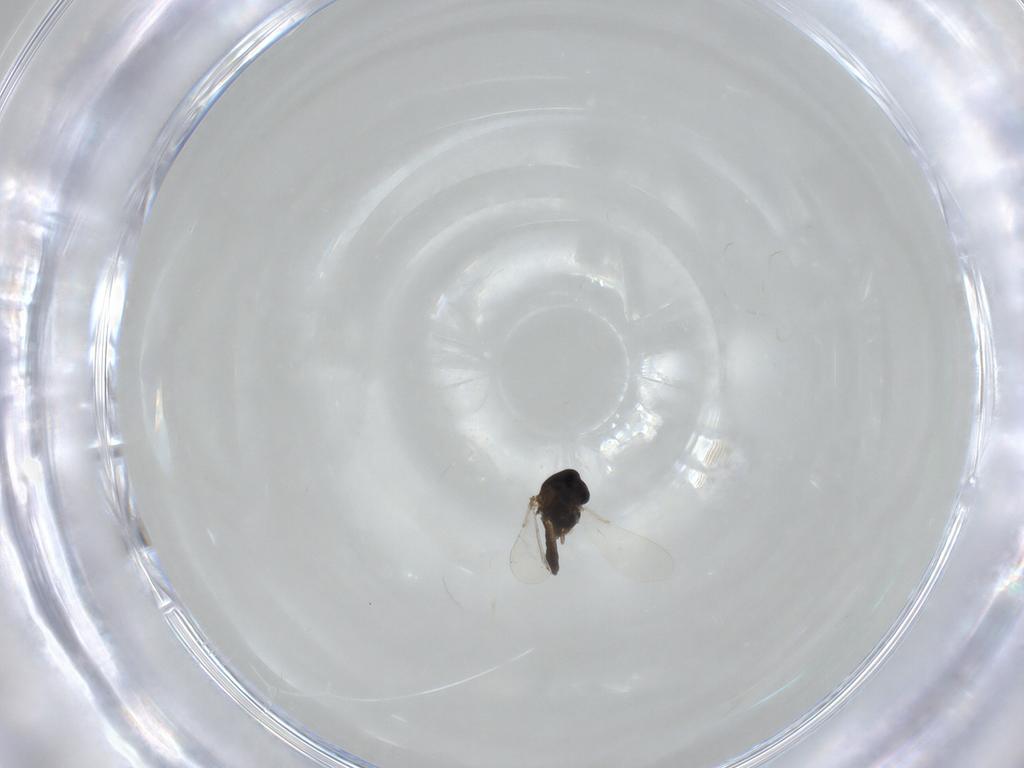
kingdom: Animalia
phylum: Arthropoda
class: Insecta
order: Diptera
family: Chironomidae
